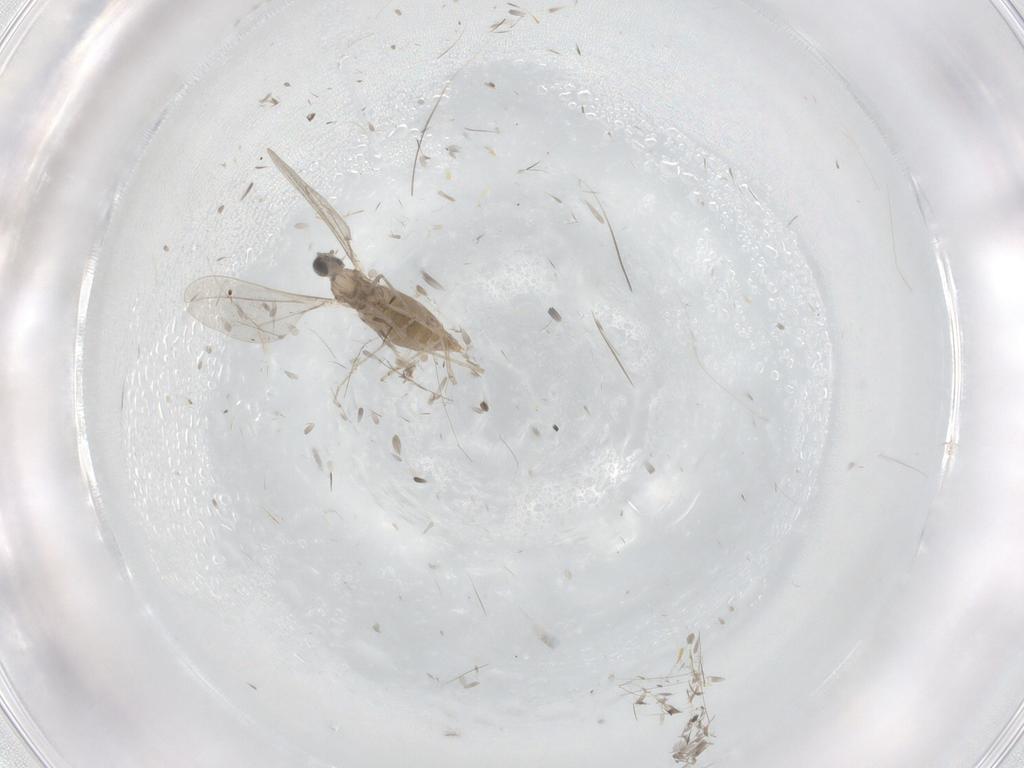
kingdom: Animalia
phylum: Arthropoda
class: Insecta
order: Diptera
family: Cecidomyiidae
